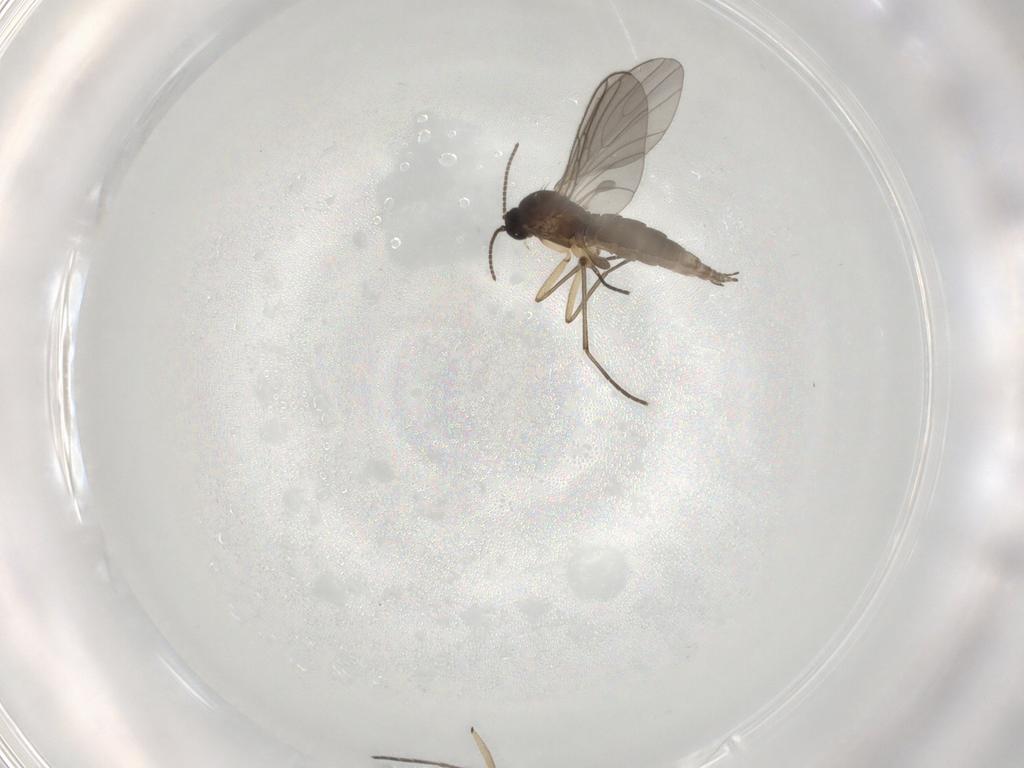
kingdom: Animalia
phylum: Arthropoda
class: Insecta
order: Diptera
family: Sciaridae
